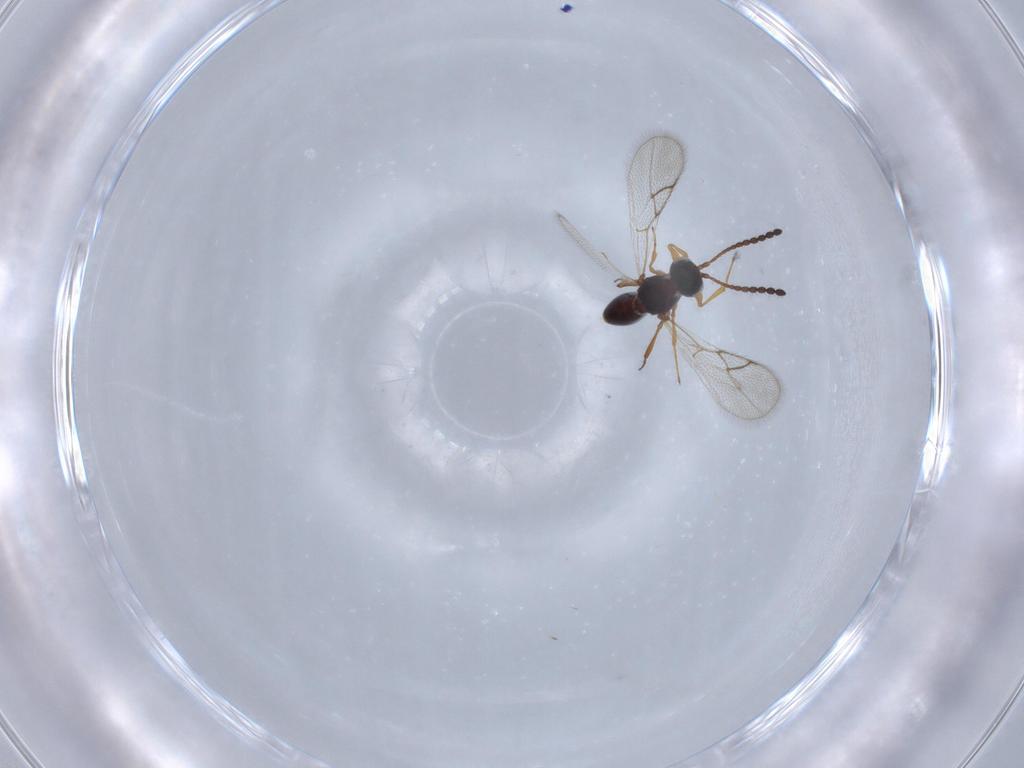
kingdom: Animalia
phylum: Arthropoda
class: Insecta
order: Hymenoptera
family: Figitidae
